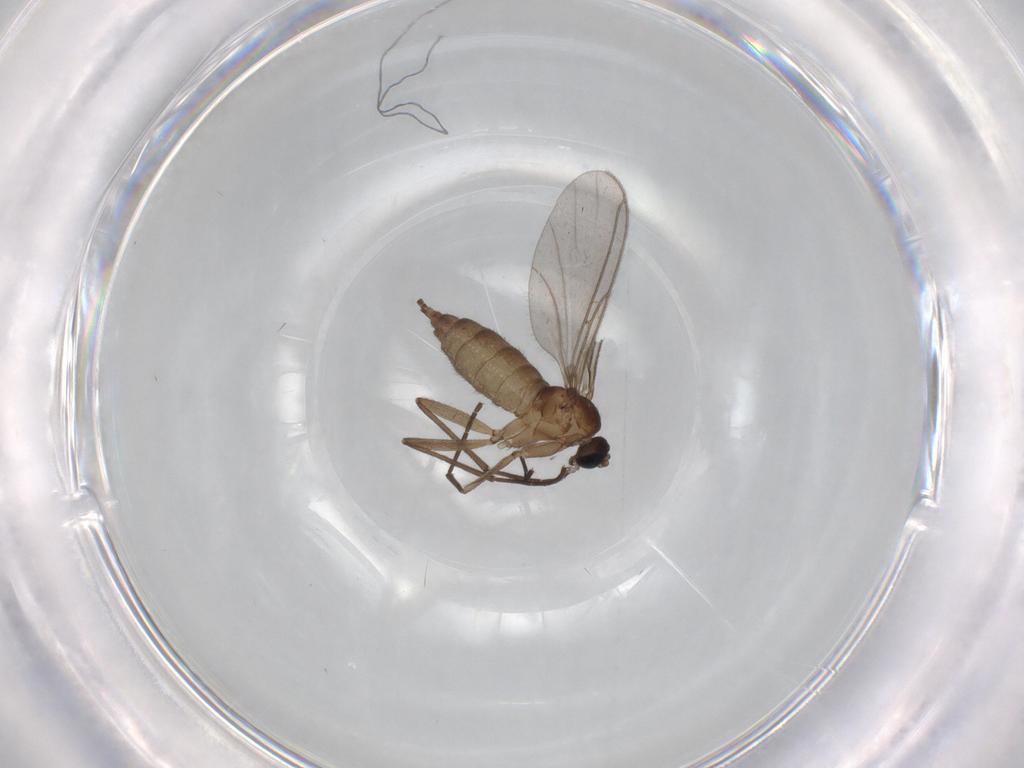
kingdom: Animalia
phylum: Arthropoda
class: Insecta
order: Diptera
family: Sciaridae
